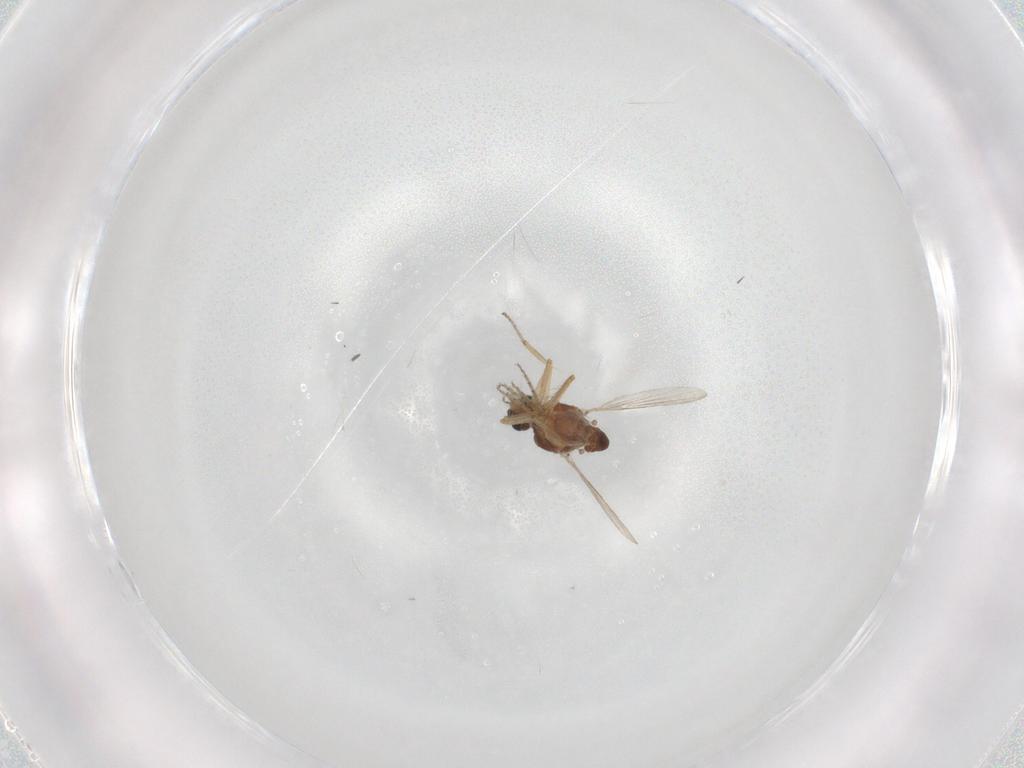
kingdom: Animalia
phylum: Arthropoda
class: Insecta
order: Diptera
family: Ceratopogonidae
